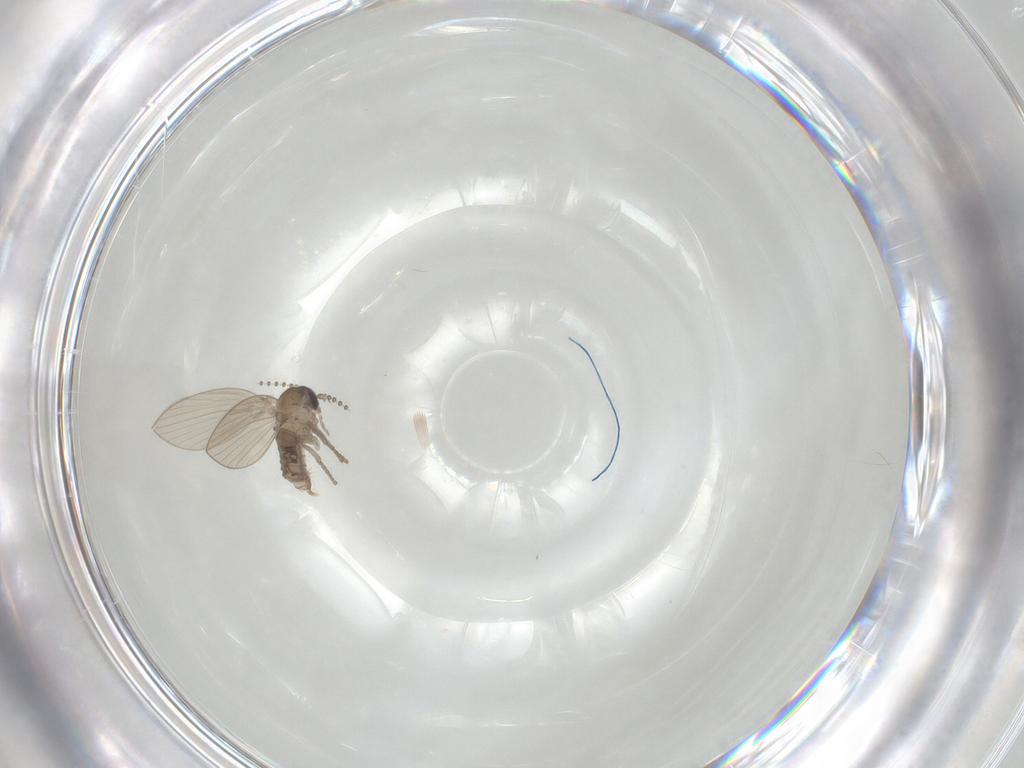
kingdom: Animalia
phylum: Arthropoda
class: Insecta
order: Diptera
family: Psychodidae
